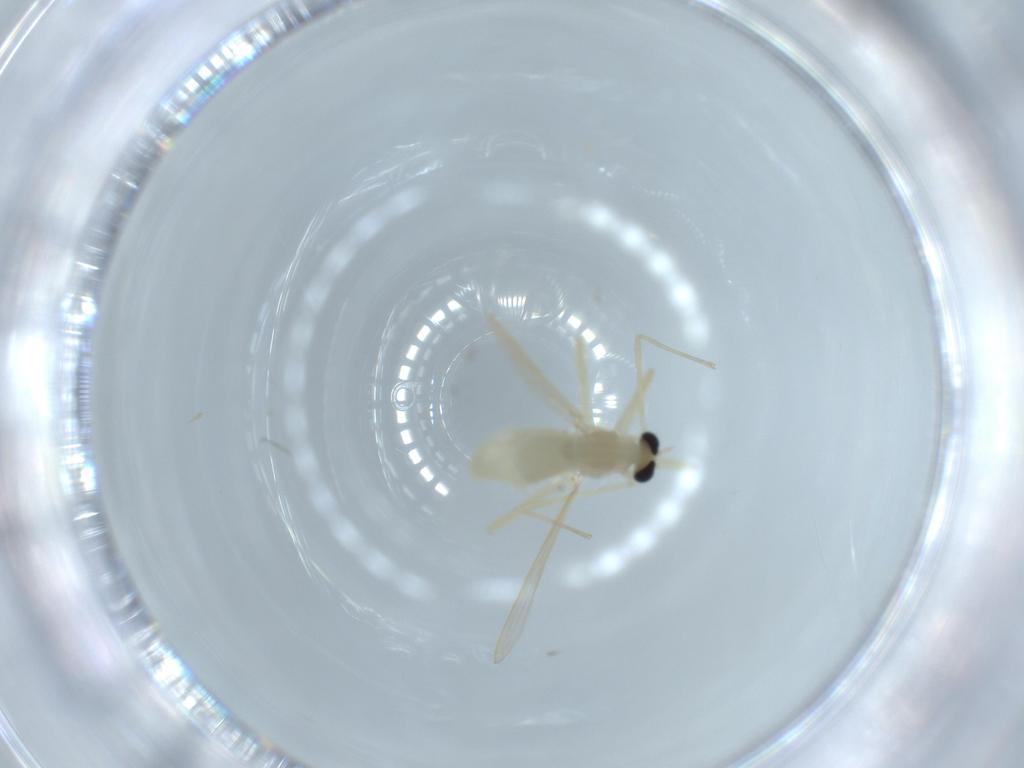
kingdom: Animalia
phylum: Arthropoda
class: Insecta
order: Diptera
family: Chironomidae
